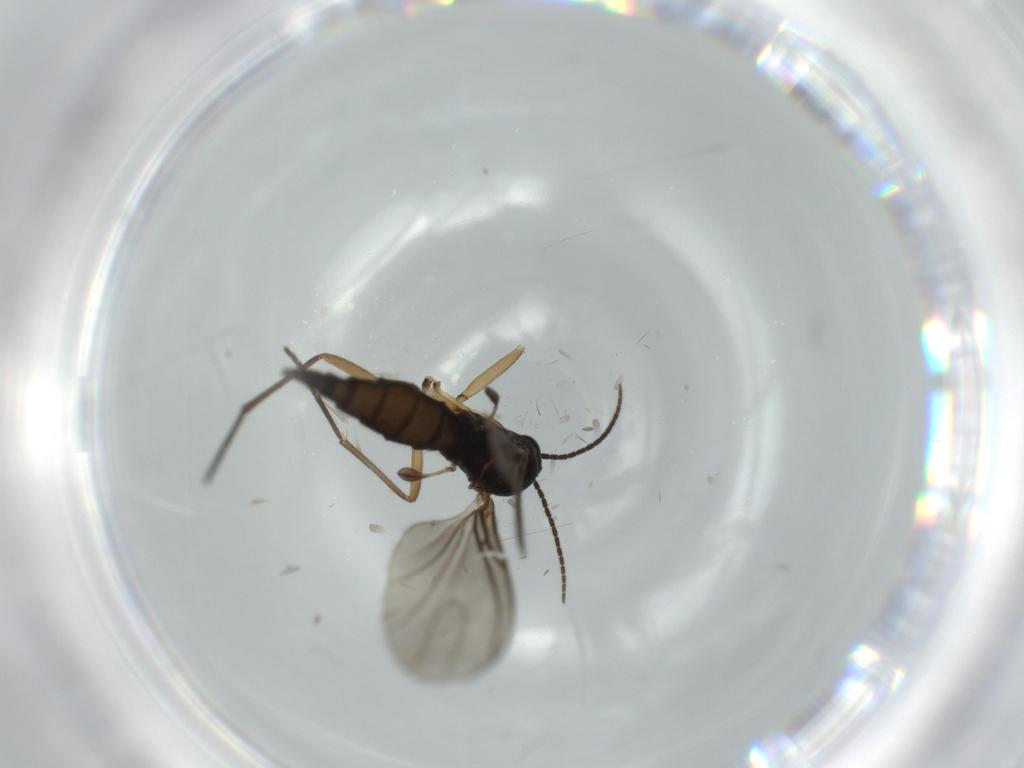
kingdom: Animalia
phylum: Arthropoda
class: Insecta
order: Diptera
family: Sciaridae
